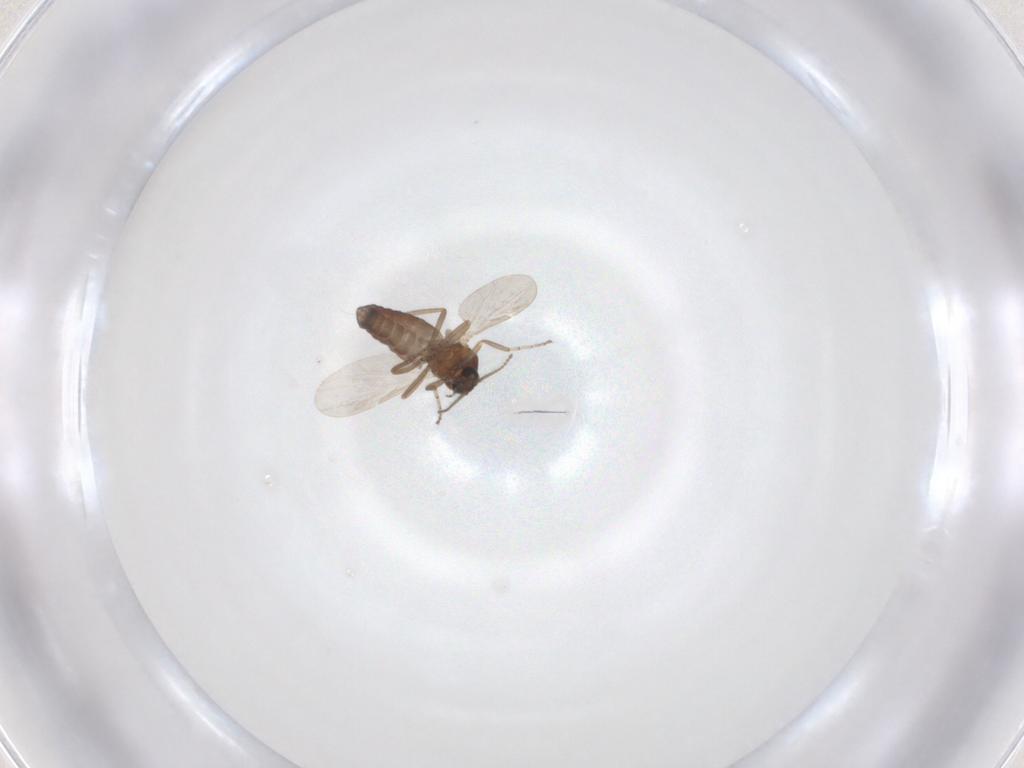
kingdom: Animalia
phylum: Arthropoda
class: Insecta
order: Diptera
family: Ceratopogonidae
